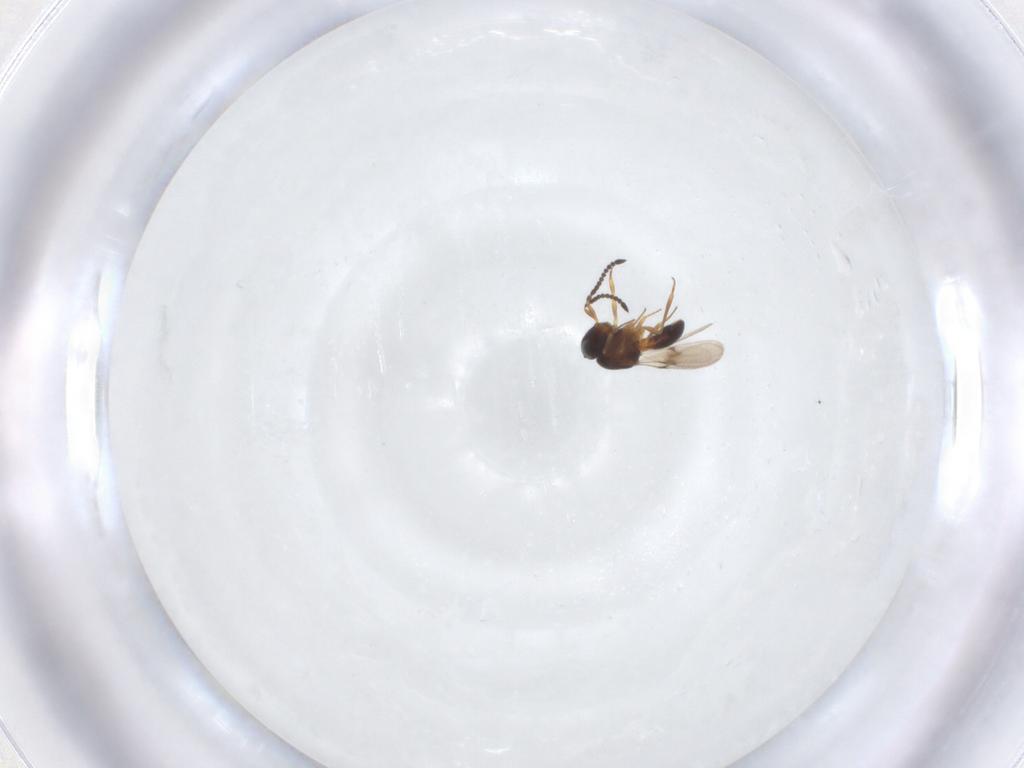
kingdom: Animalia
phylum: Arthropoda
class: Arachnida
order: Araneae
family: Pholcidae
